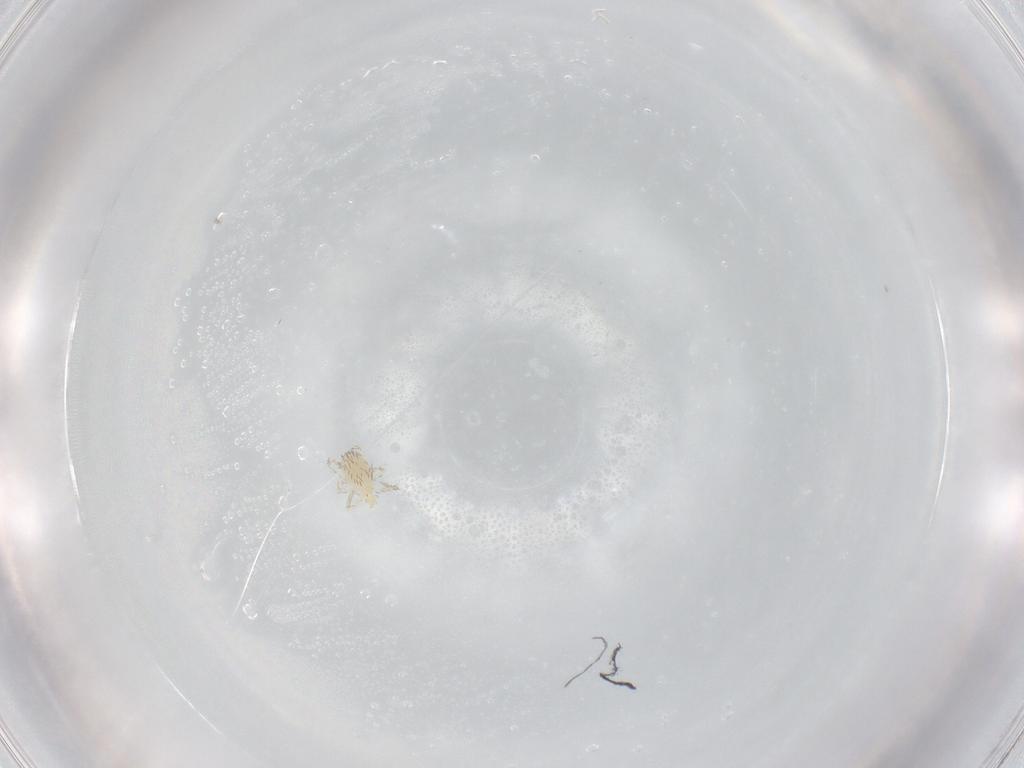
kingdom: Animalia
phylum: Arthropoda
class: Arachnida
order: Trombidiformes
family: Erythraeidae
